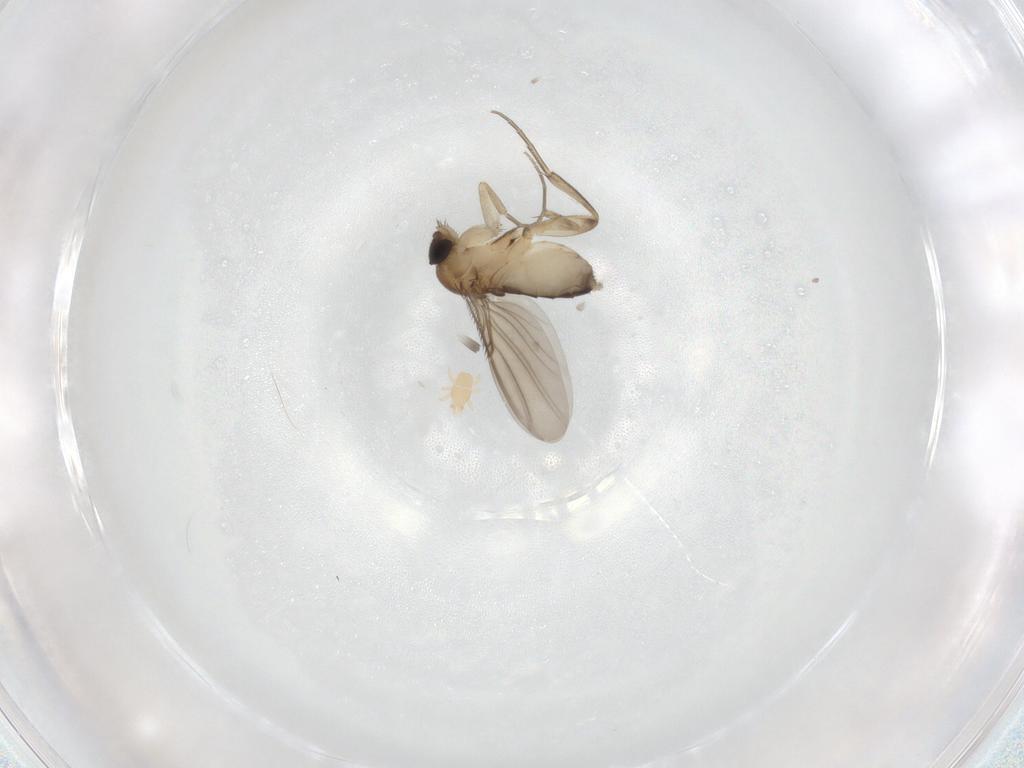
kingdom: Animalia
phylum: Arthropoda
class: Insecta
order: Diptera
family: Phoridae
